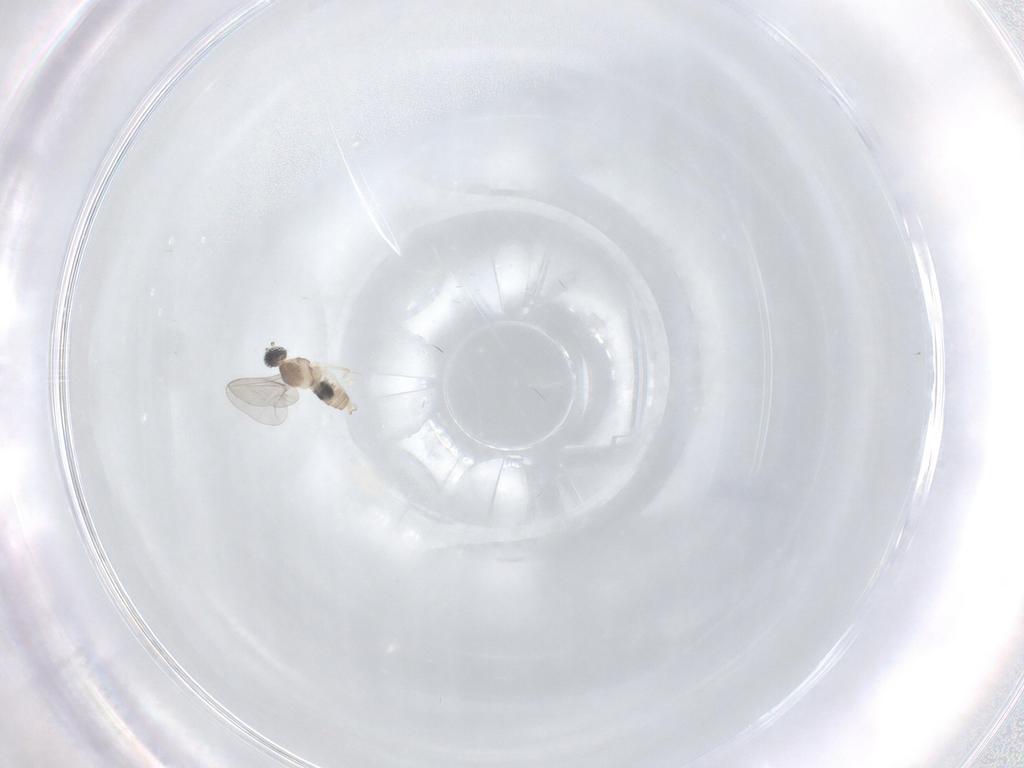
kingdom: Animalia
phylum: Arthropoda
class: Insecta
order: Diptera
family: Cecidomyiidae
